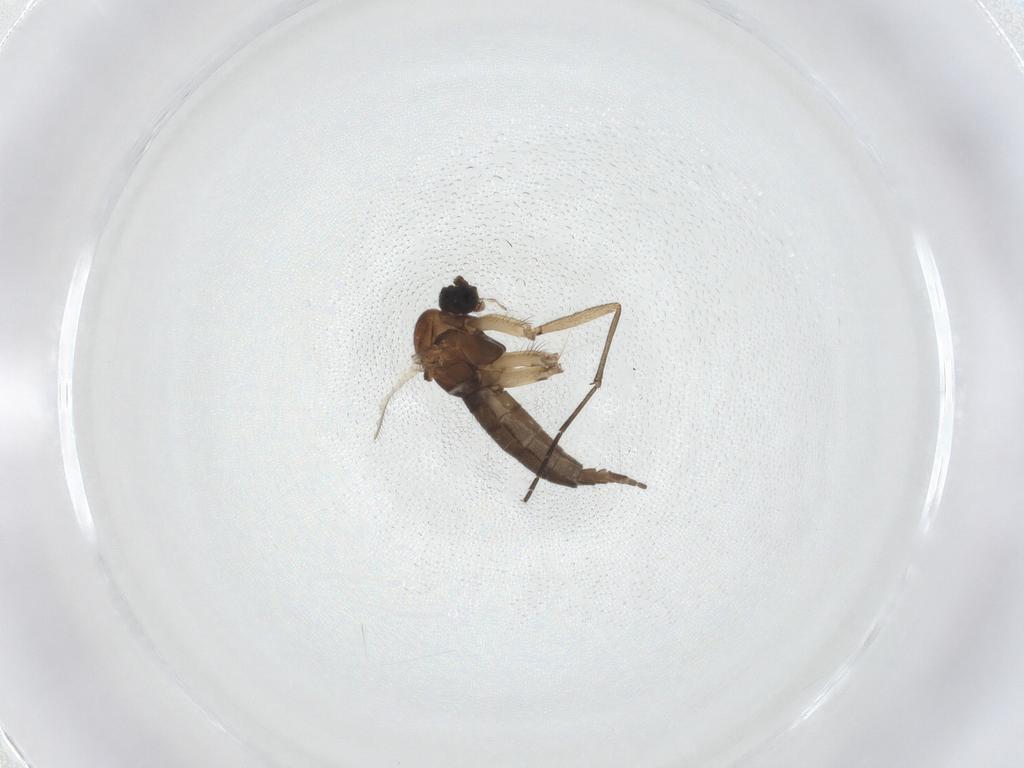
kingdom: Animalia
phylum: Arthropoda
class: Insecta
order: Diptera
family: Sciaridae
